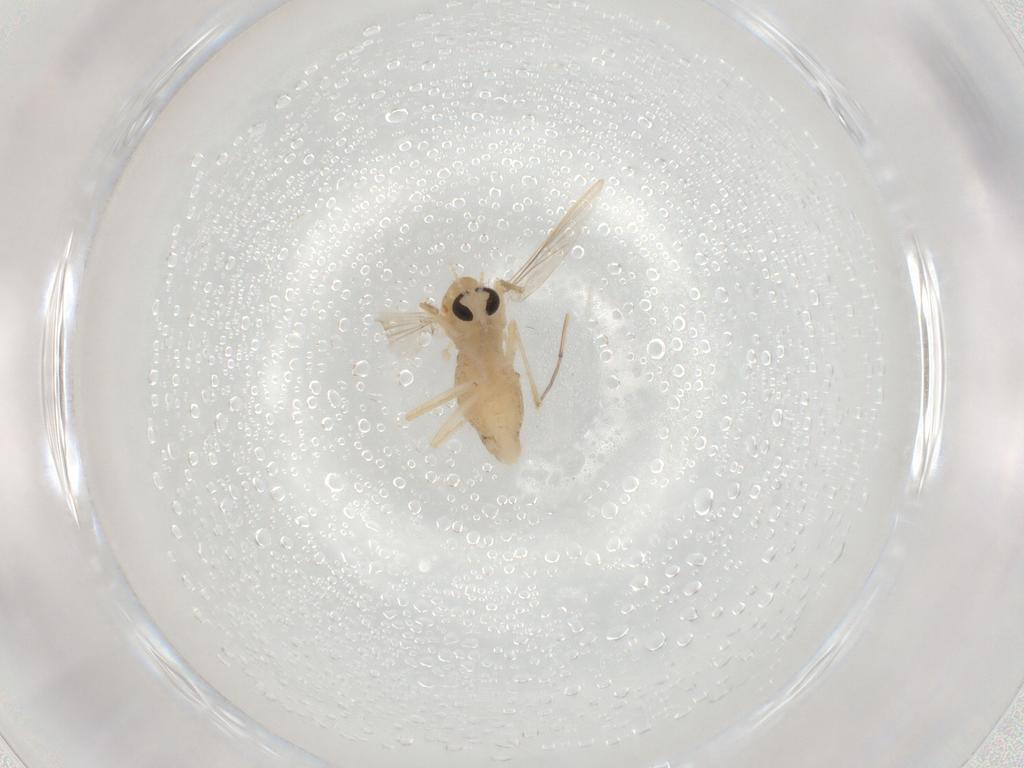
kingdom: Animalia
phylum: Arthropoda
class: Insecta
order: Diptera
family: Chironomidae
